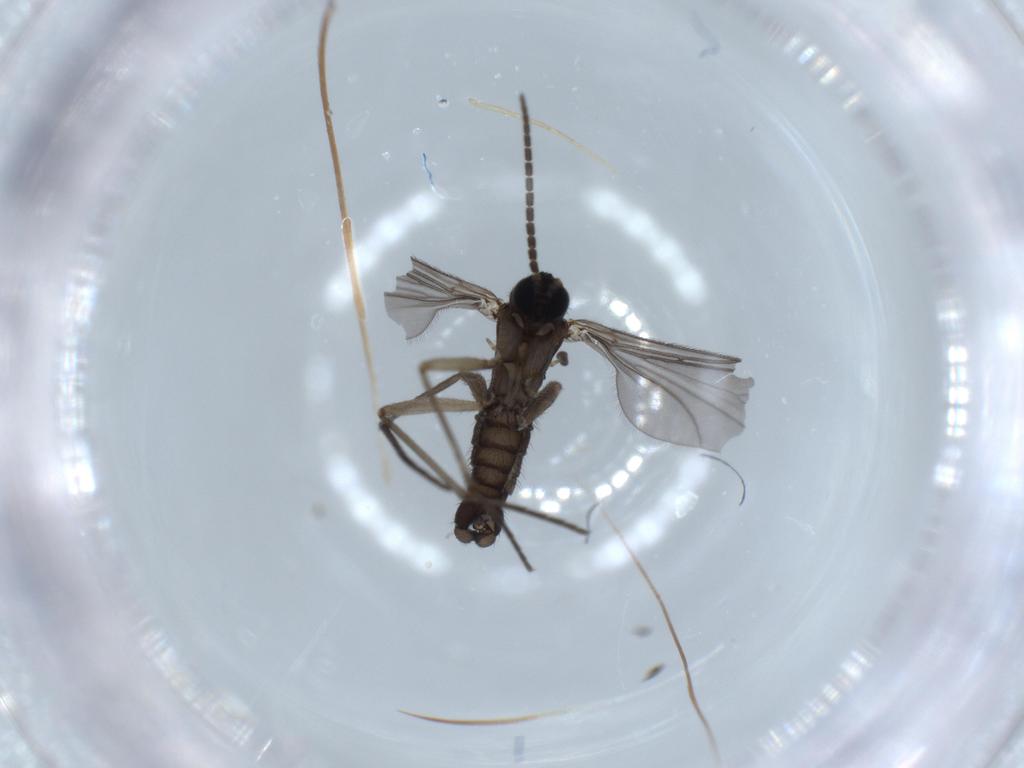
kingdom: Animalia
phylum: Arthropoda
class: Insecta
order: Diptera
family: Sciaridae
